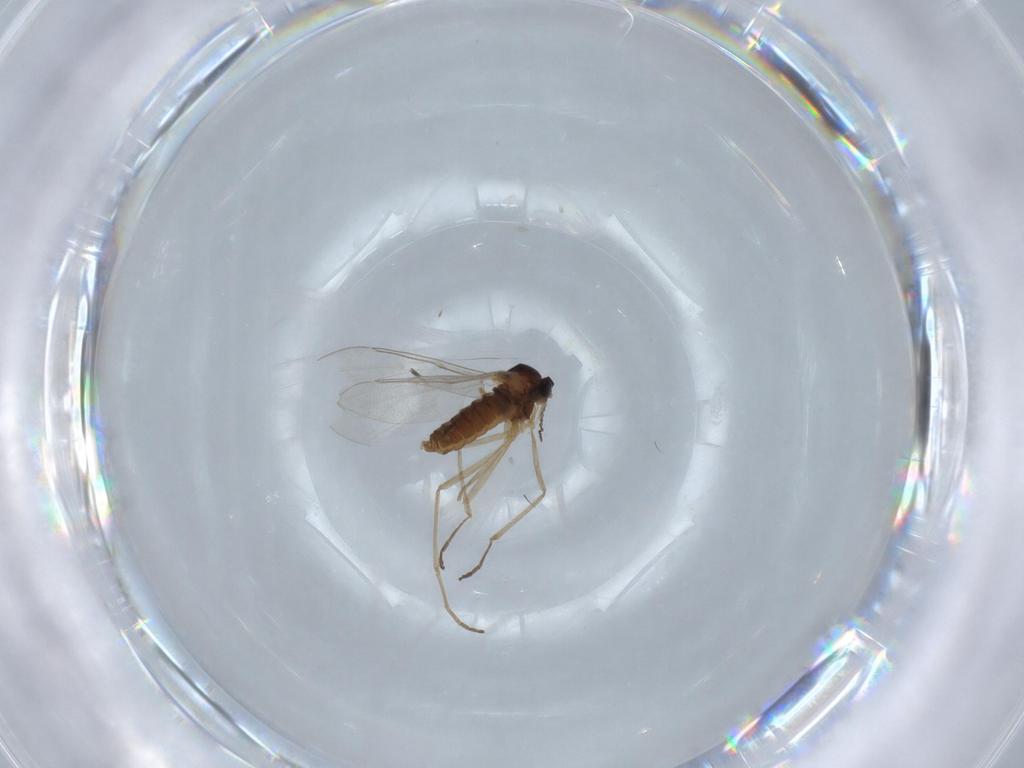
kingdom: Animalia
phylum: Arthropoda
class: Insecta
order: Diptera
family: Cecidomyiidae
